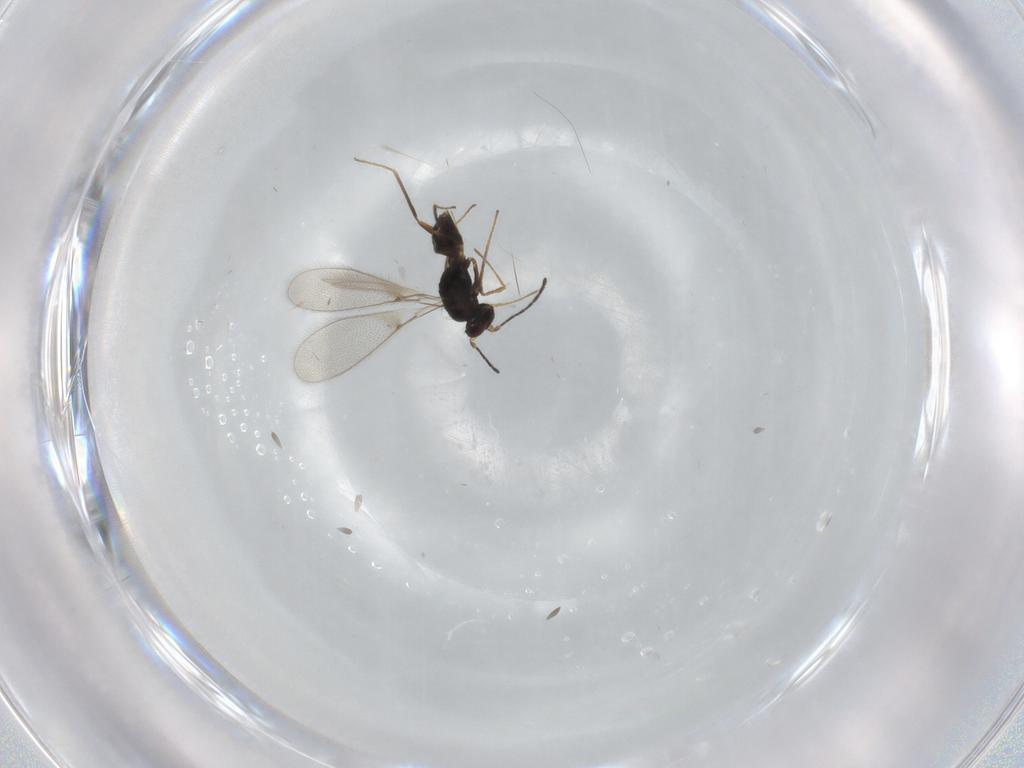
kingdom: Animalia
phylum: Arthropoda
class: Insecta
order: Hymenoptera
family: Mymaridae
